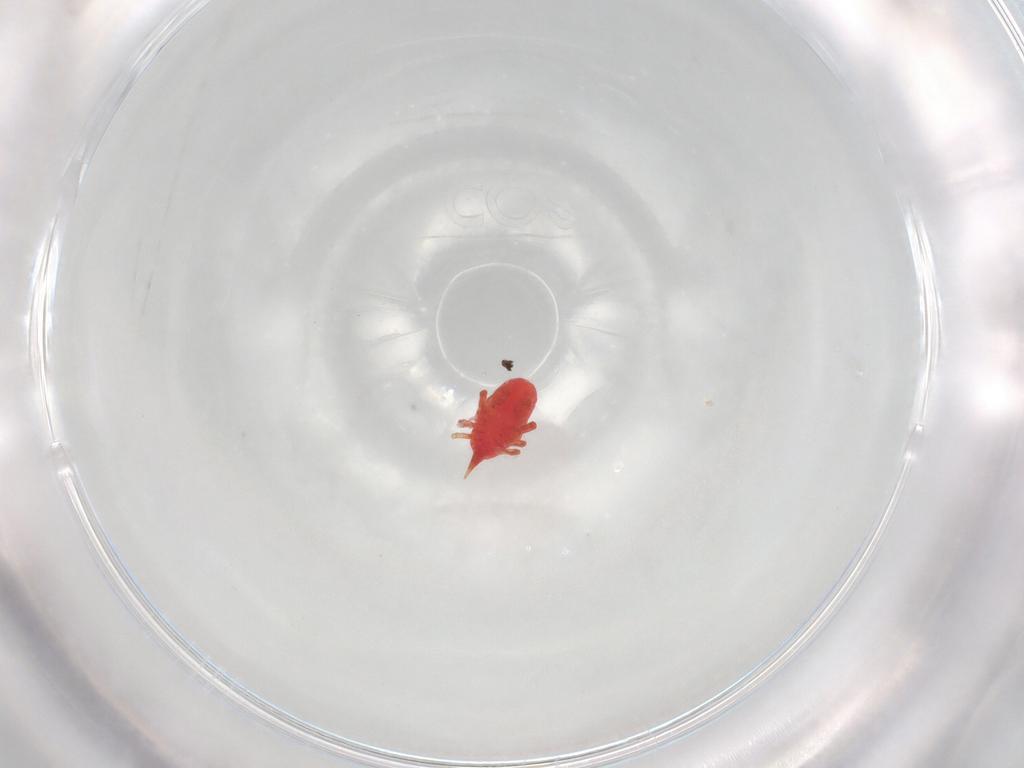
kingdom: Animalia
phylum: Arthropoda
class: Arachnida
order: Trombidiformes
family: Bdellidae
